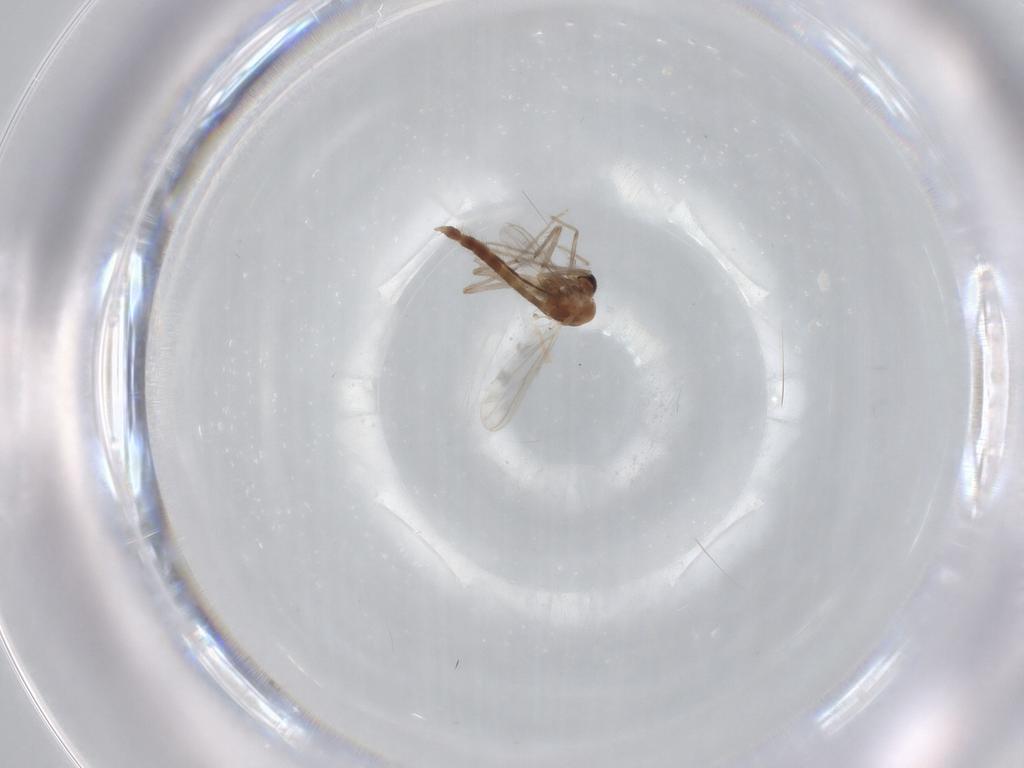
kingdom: Animalia
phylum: Arthropoda
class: Insecta
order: Diptera
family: Chironomidae
